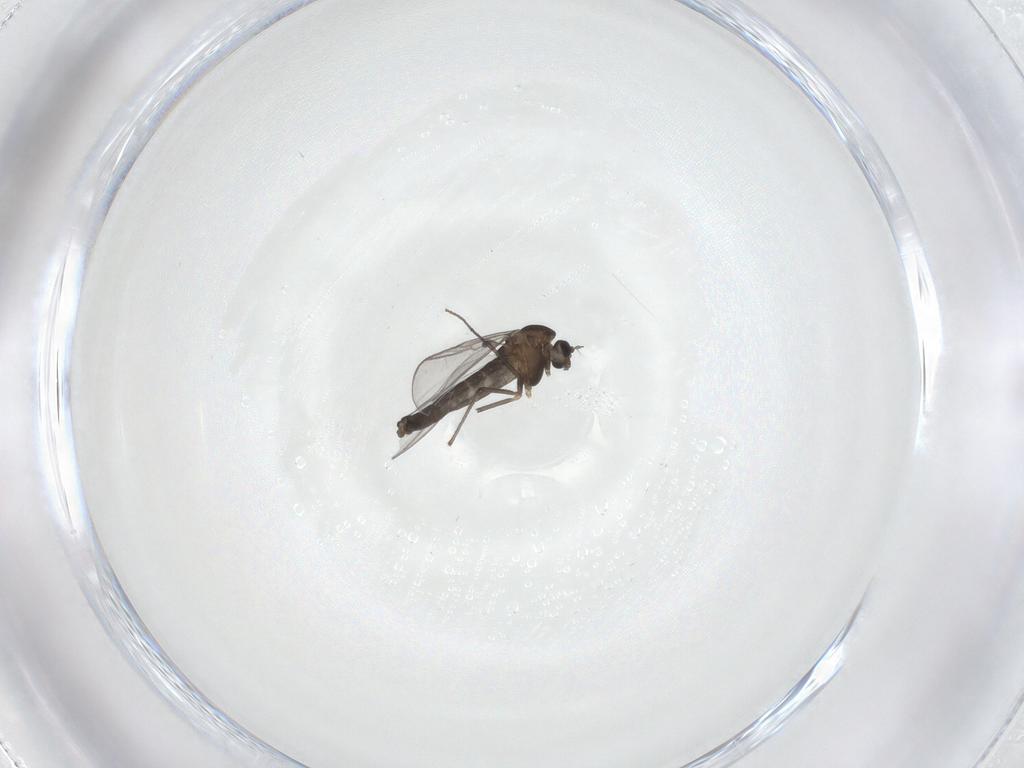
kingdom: Animalia
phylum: Arthropoda
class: Insecta
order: Diptera
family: Chironomidae
